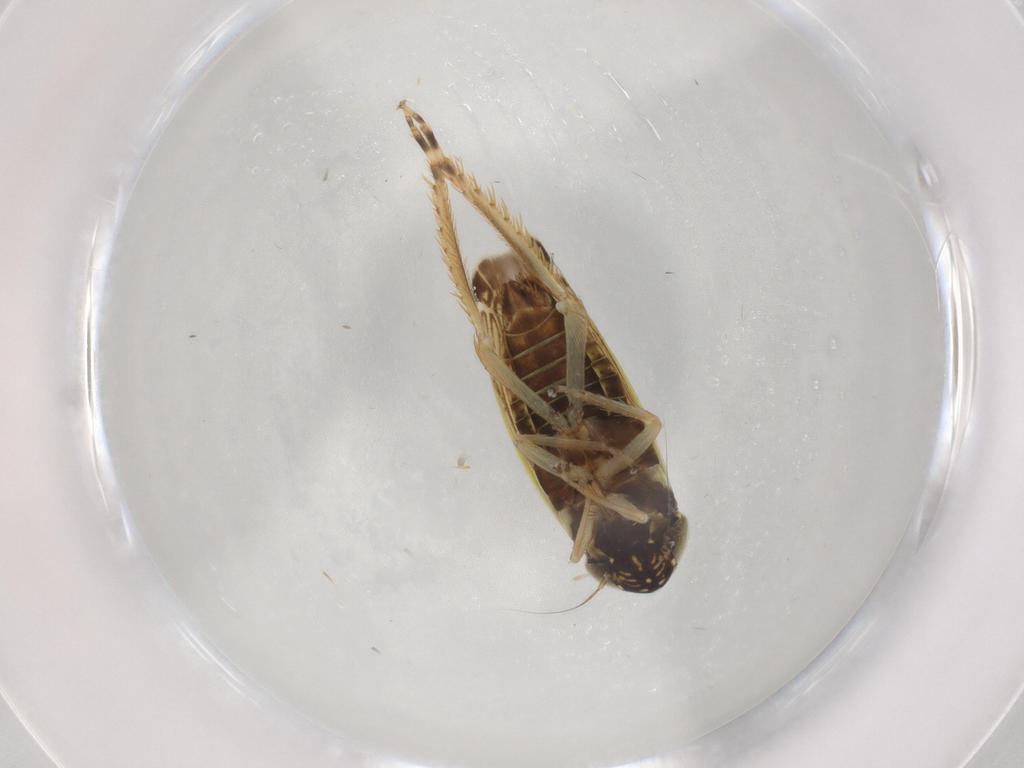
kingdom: Animalia
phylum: Arthropoda
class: Insecta
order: Hemiptera
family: Cicadellidae
